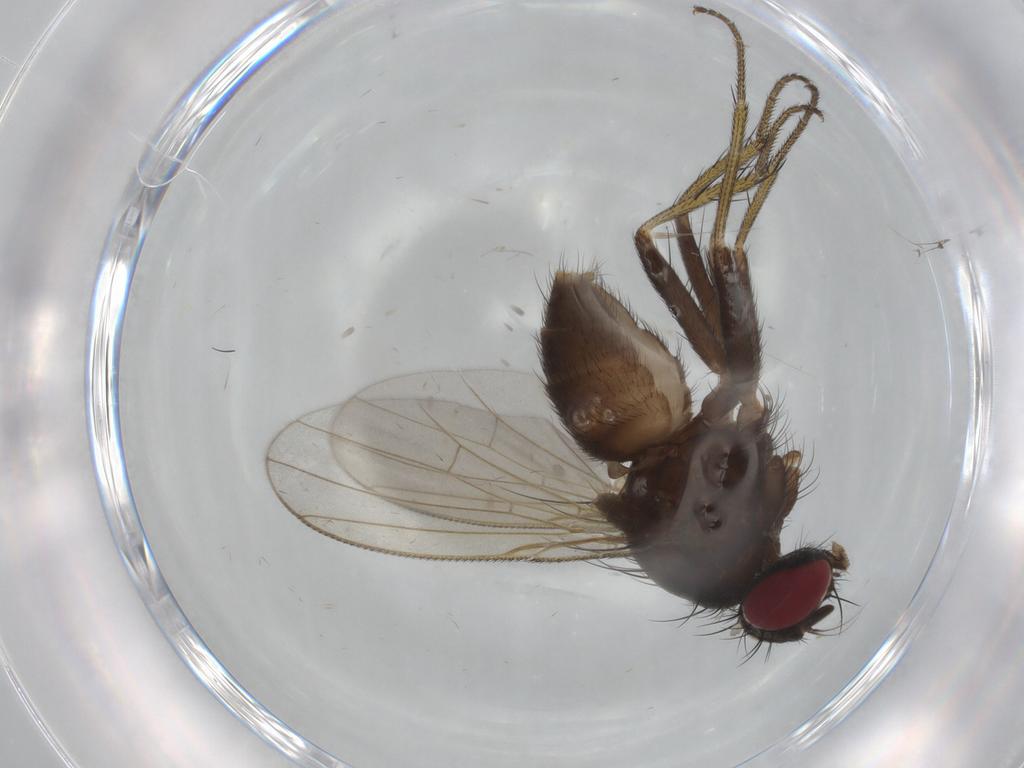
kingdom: Animalia
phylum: Arthropoda
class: Insecta
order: Diptera
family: Muscidae
